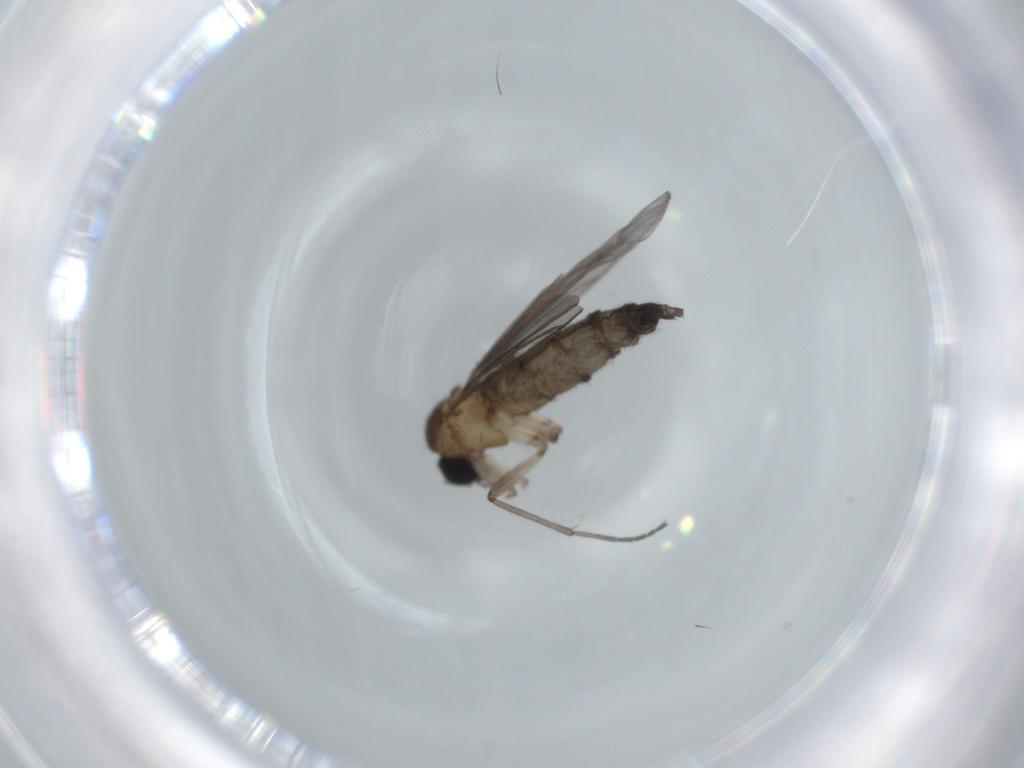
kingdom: Animalia
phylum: Arthropoda
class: Insecta
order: Diptera
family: Sciaridae
